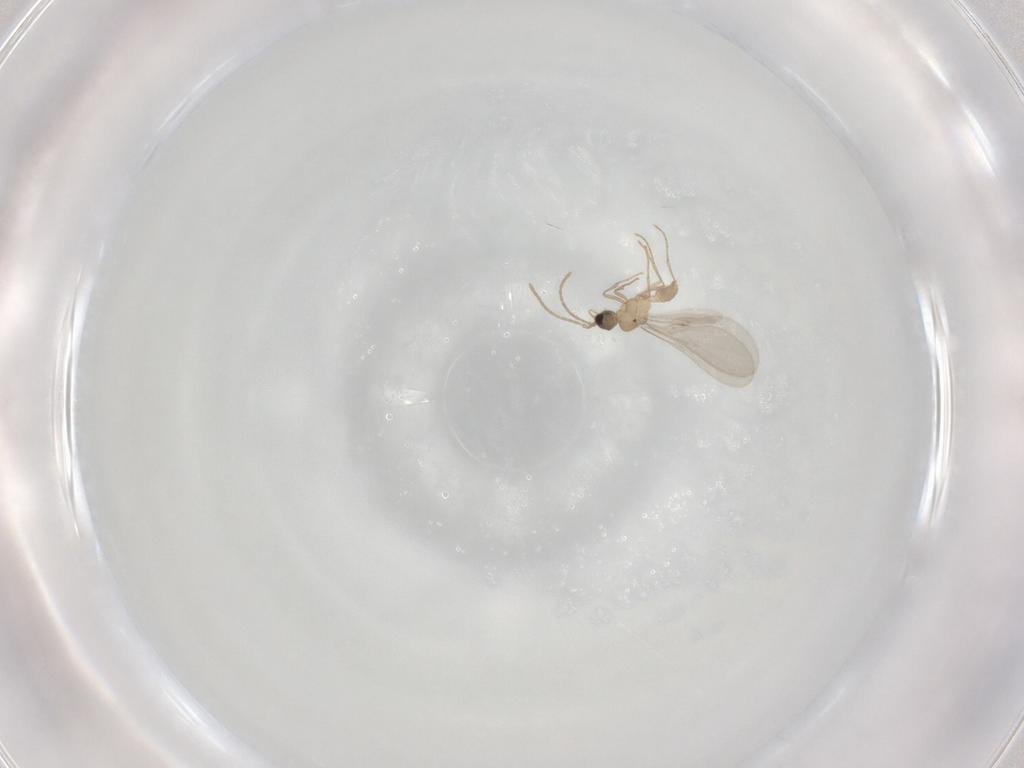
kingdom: Animalia
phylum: Arthropoda
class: Insecta
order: Hymenoptera
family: Formicidae
